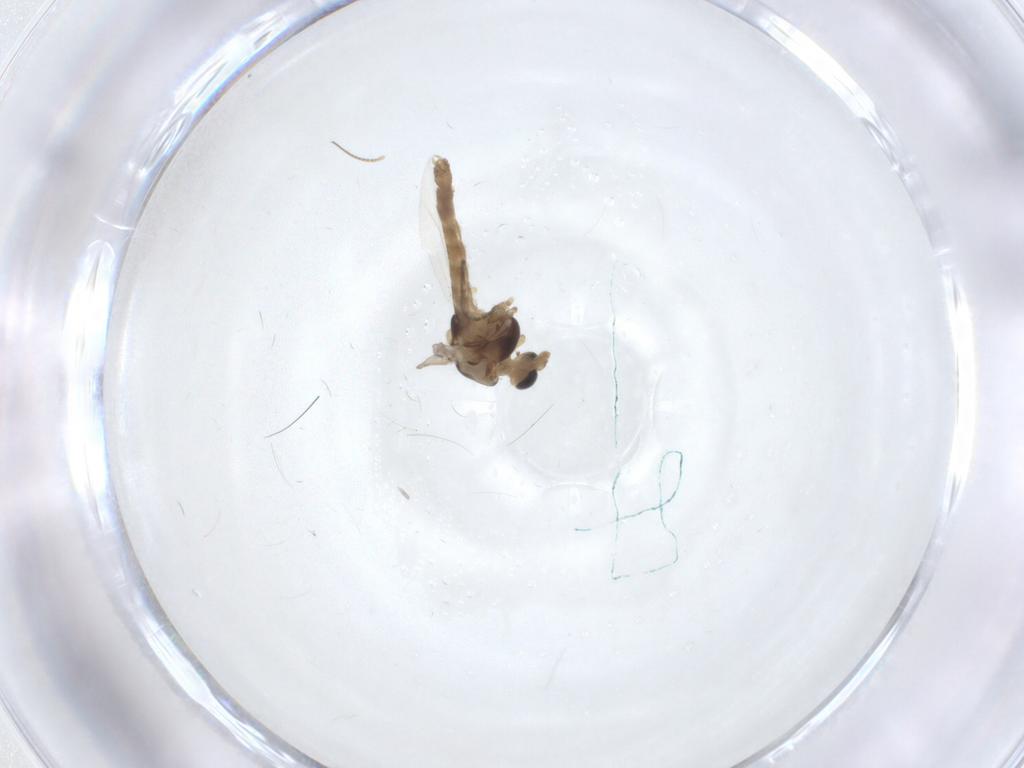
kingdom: Animalia
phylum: Arthropoda
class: Insecta
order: Diptera
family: Chironomidae
